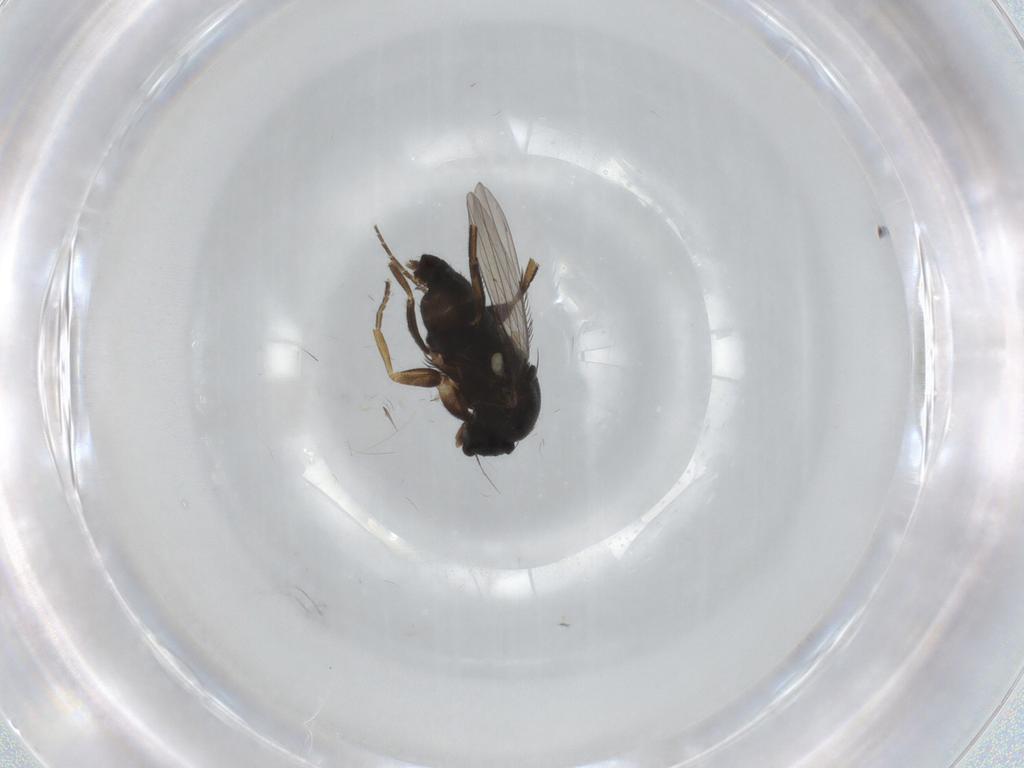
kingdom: Animalia
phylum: Arthropoda
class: Insecta
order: Diptera
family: Phoridae
